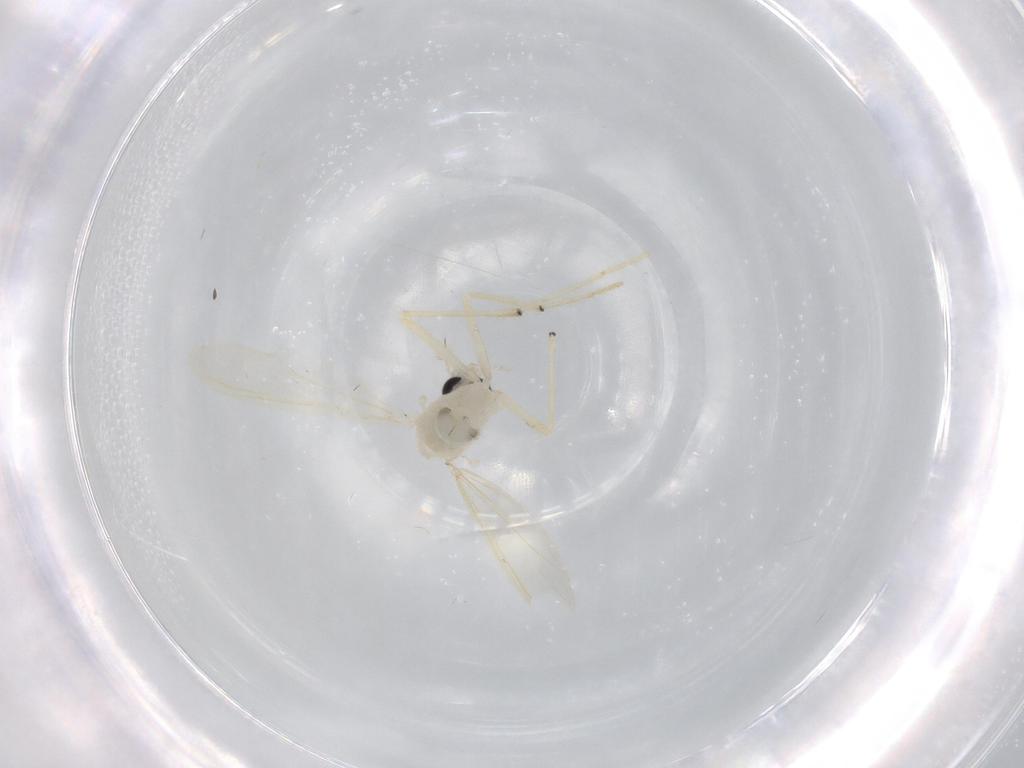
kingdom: Animalia
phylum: Arthropoda
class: Insecta
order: Diptera
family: Chironomidae
